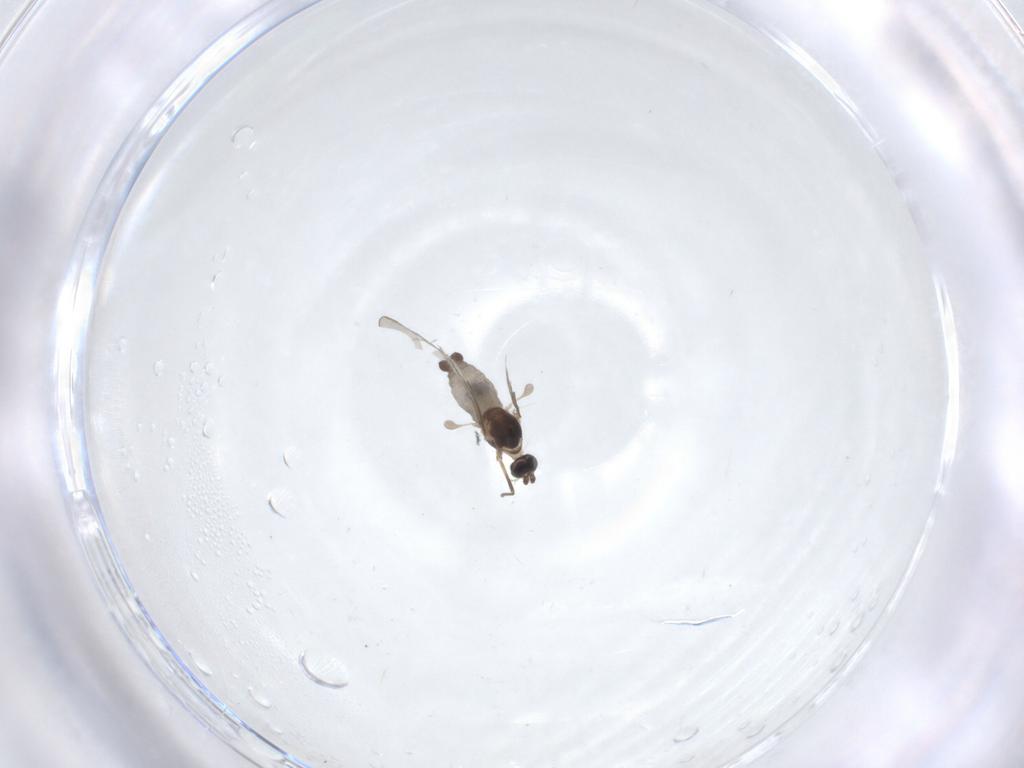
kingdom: Animalia
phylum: Arthropoda
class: Insecta
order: Diptera
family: Cecidomyiidae
